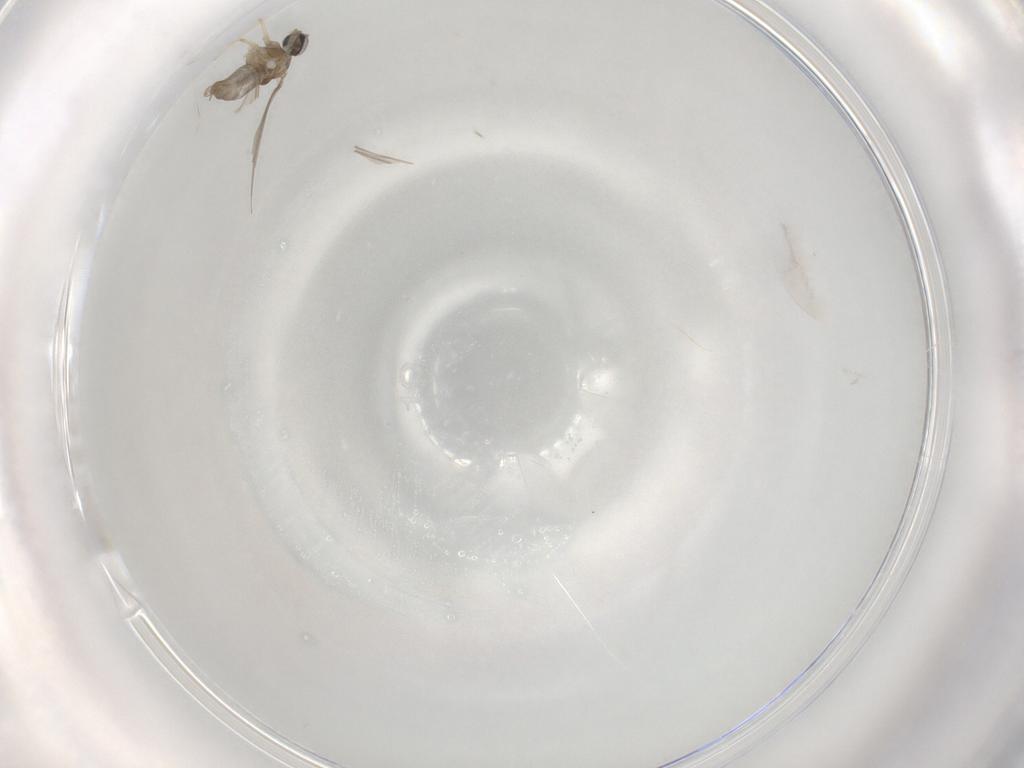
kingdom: Animalia
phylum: Arthropoda
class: Insecta
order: Diptera
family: Cecidomyiidae
